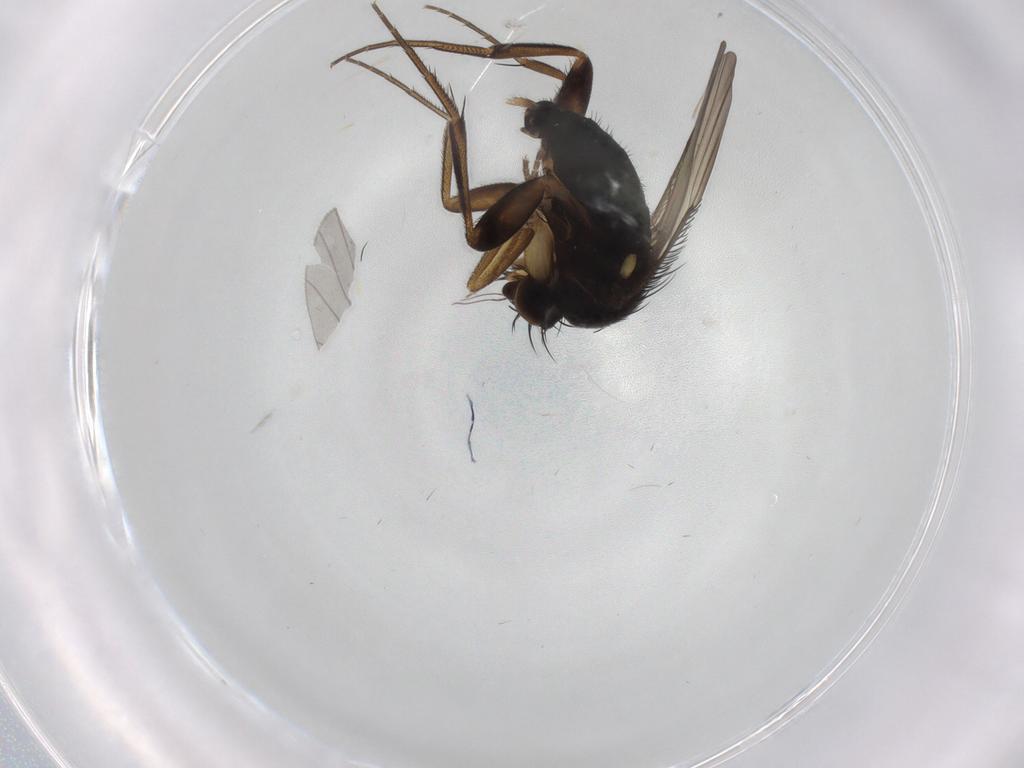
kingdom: Animalia
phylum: Arthropoda
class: Insecta
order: Diptera
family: Phoridae
